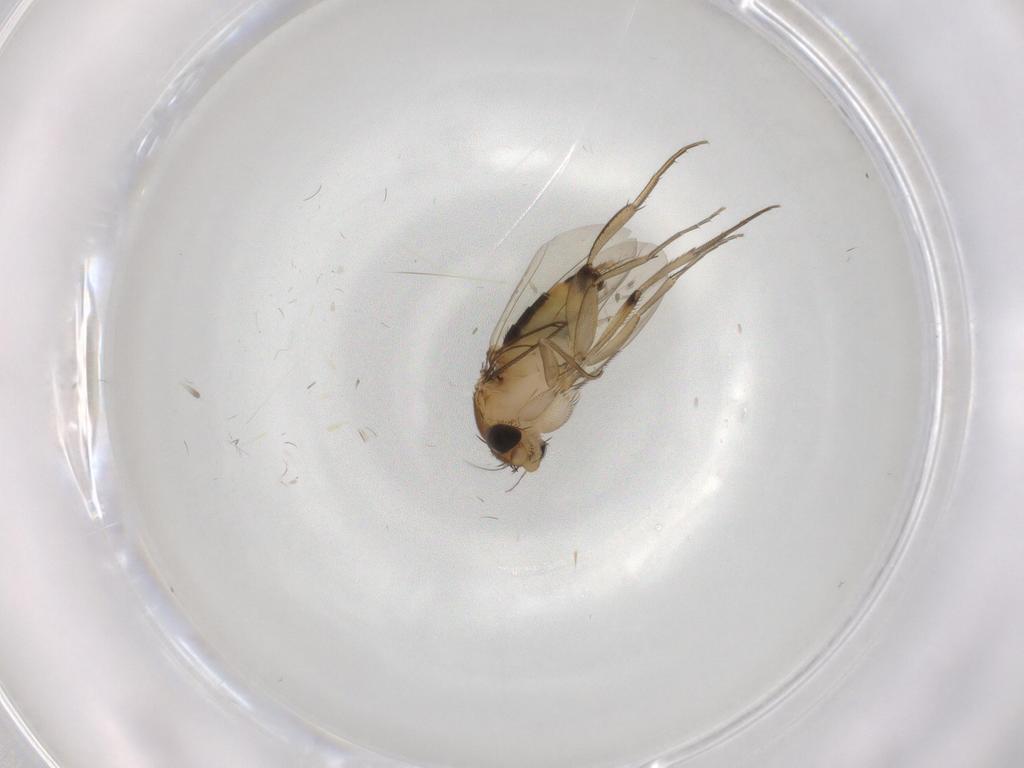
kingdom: Animalia
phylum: Arthropoda
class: Insecta
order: Diptera
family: Phoridae
